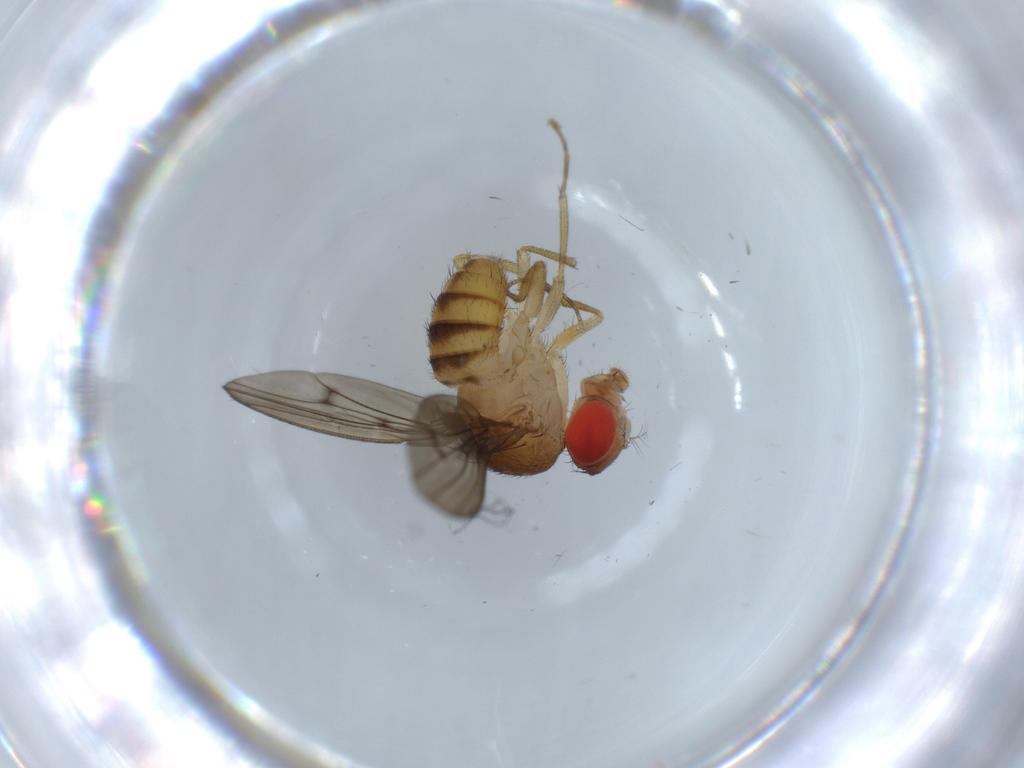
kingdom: Animalia
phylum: Arthropoda
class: Insecta
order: Diptera
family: Drosophilidae
